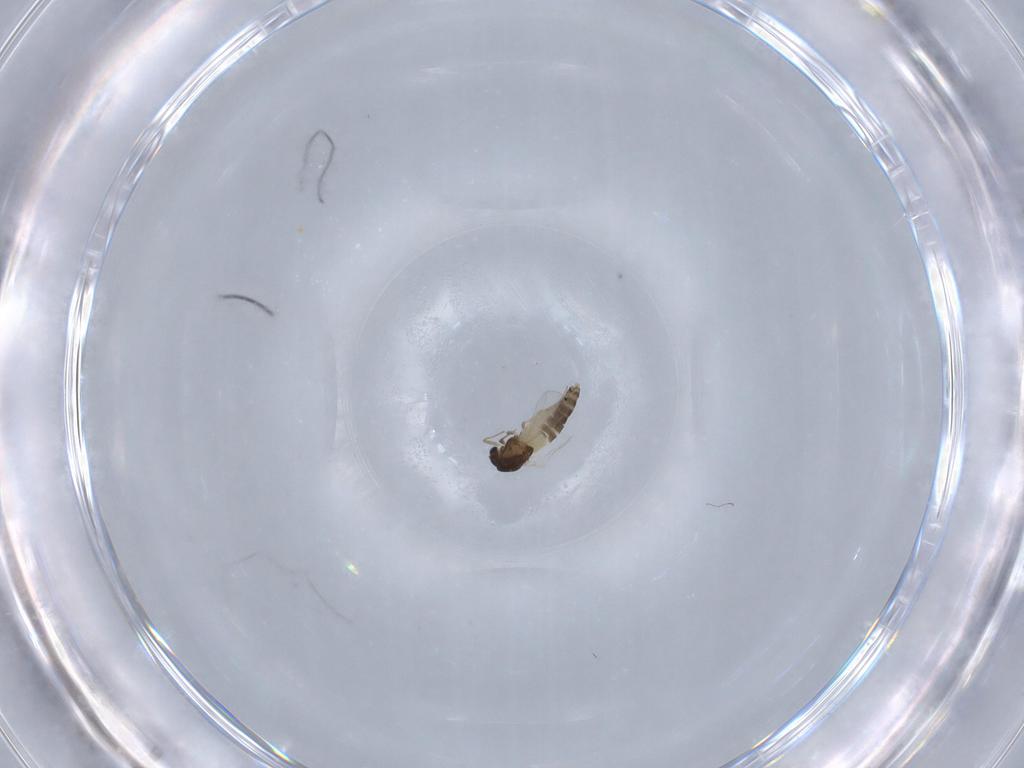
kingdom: Animalia
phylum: Arthropoda
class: Insecta
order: Diptera
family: Chironomidae
